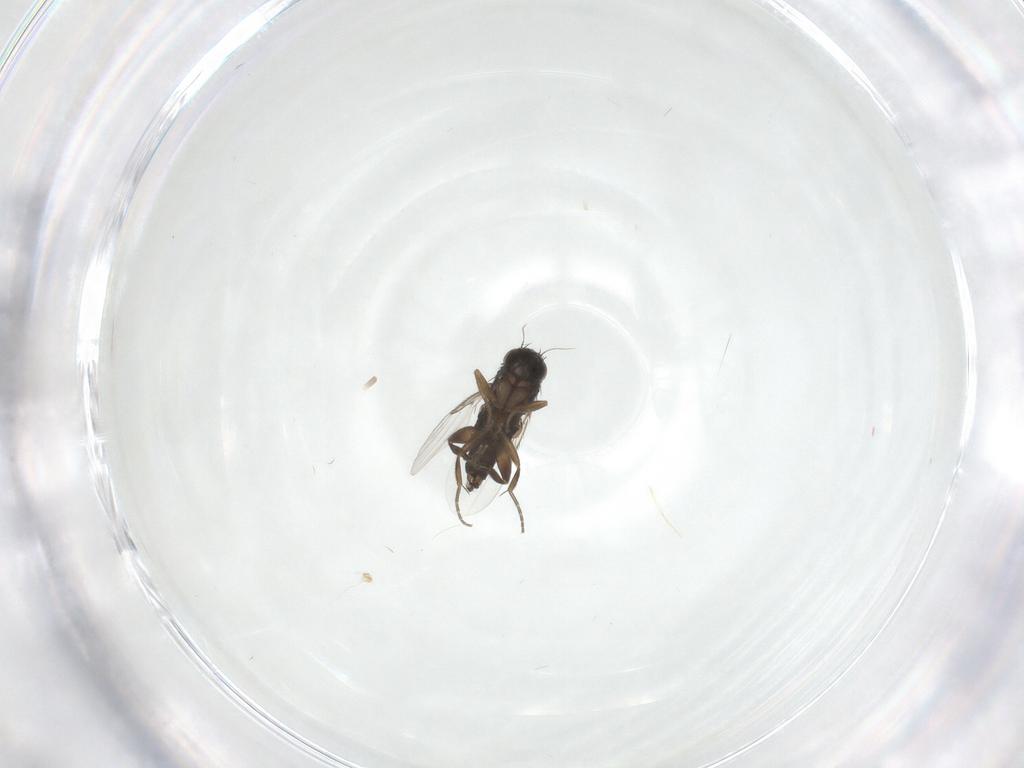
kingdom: Animalia
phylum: Arthropoda
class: Insecta
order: Diptera
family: Phoridae
